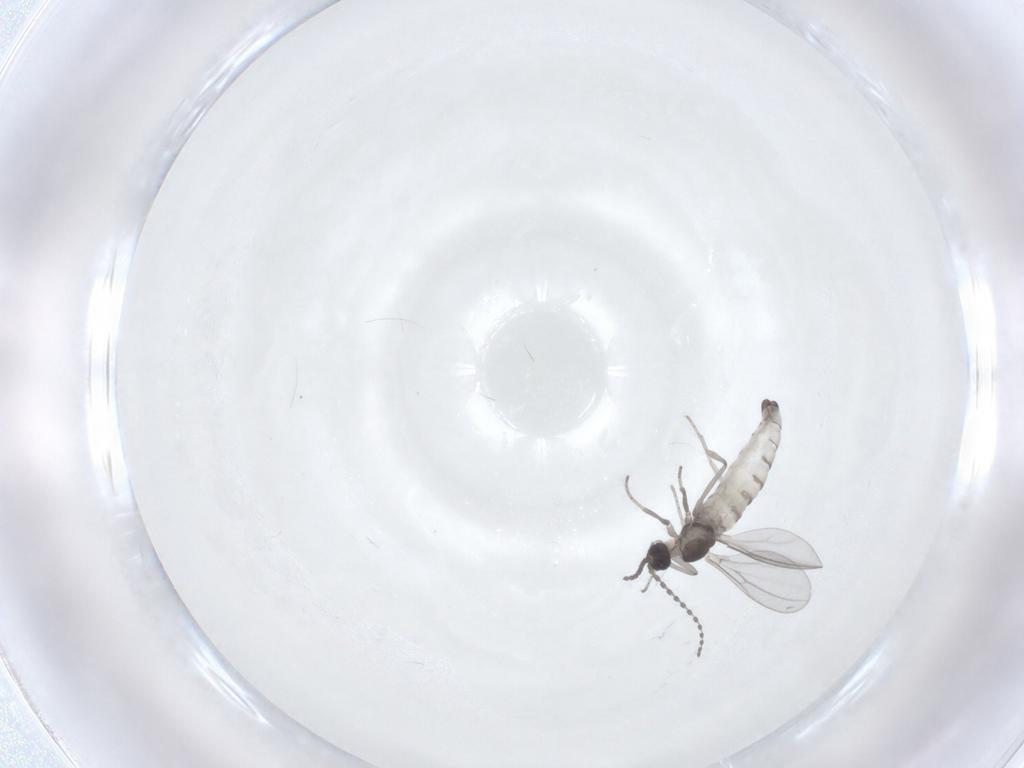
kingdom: Animalia
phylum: Arthropoda
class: Insecta
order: Diptera
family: Cecidomyiidae
